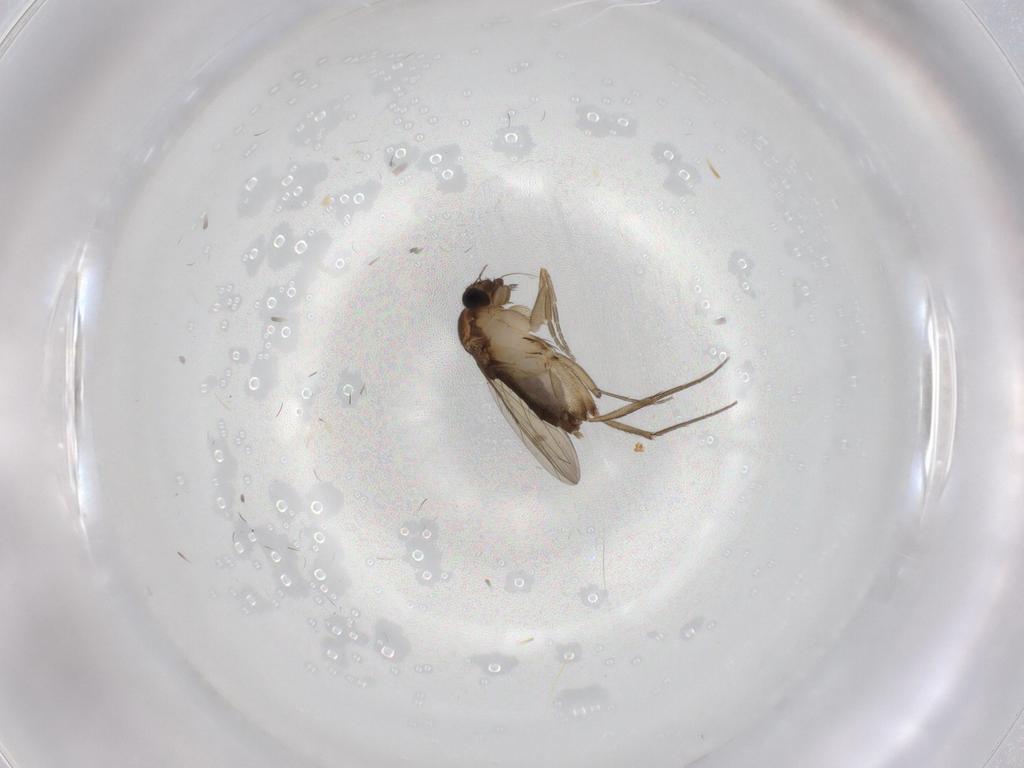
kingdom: Animalia
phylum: Arthropoda
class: Insecta
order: Diptera
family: Phoridae
